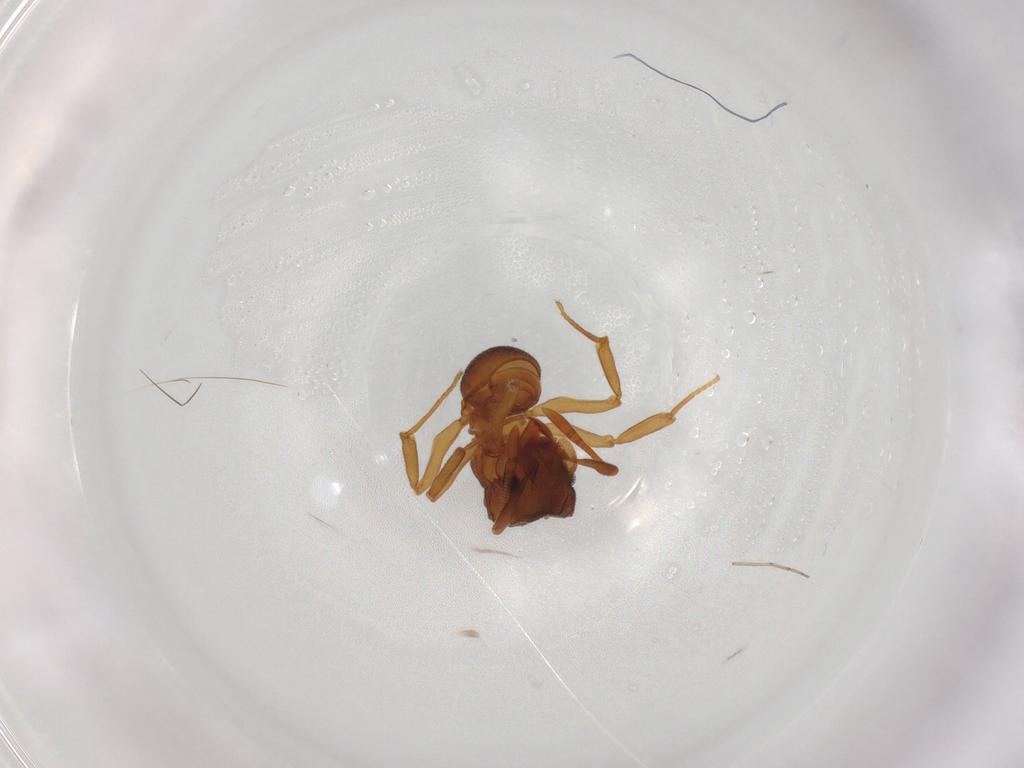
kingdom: Animalia
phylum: Arthropoda
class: Insecta
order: Hymenoptera
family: Formicidae
